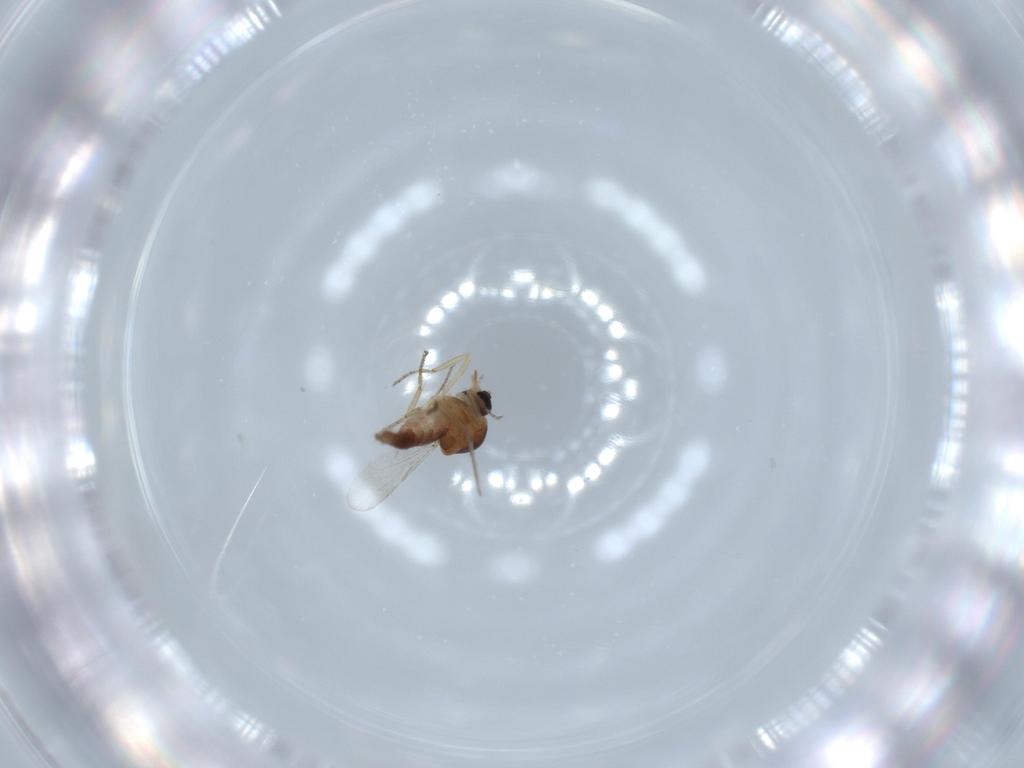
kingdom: Animalia
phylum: Arthropoda
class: Insecta
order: Diptera
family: Ceratopogonidae
